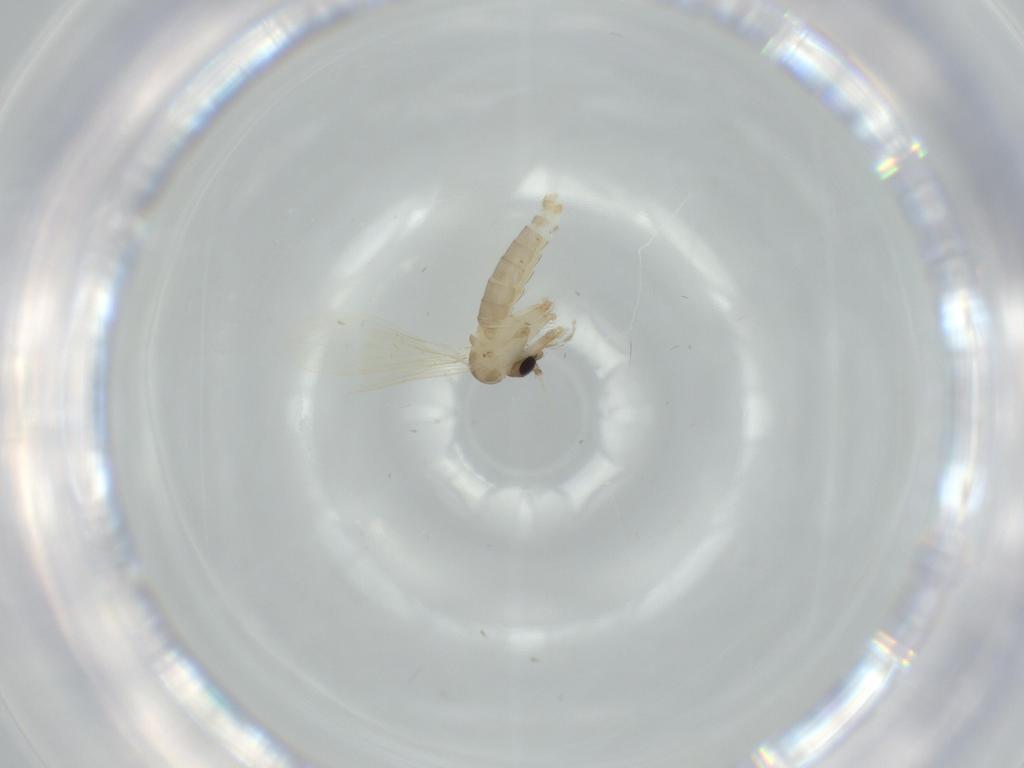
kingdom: Animalia
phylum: Arthropoda
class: Insecta
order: Diptera
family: Psychodidae
